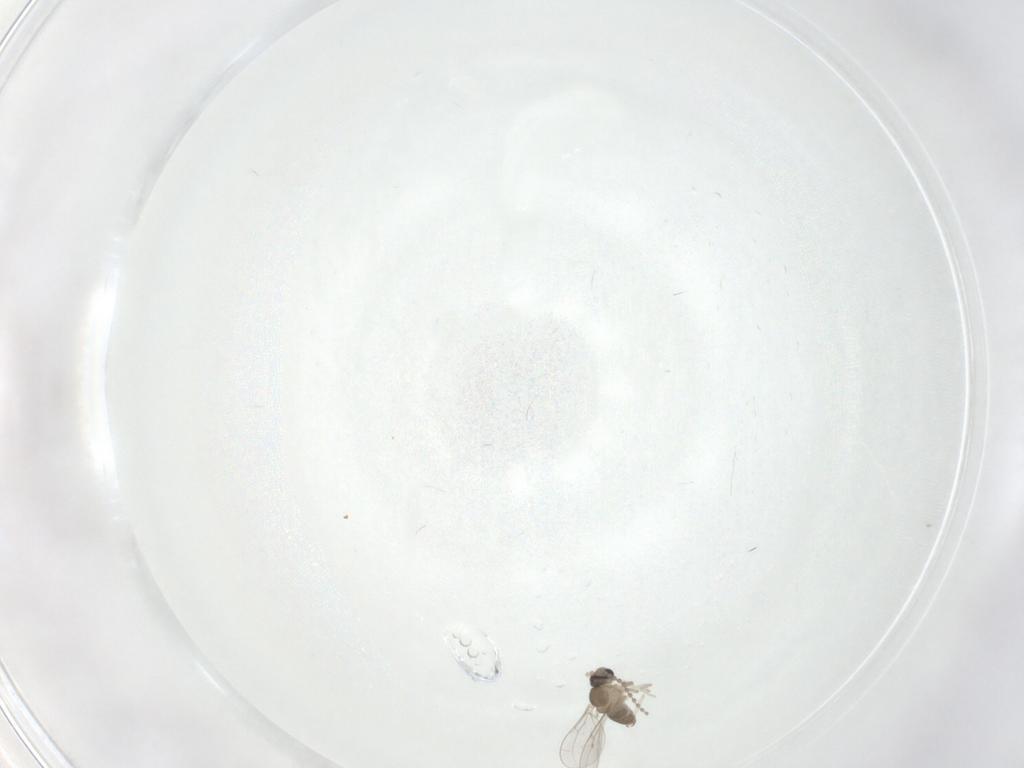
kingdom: Animalia
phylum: Arthropoda
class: Insecta
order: Diptera
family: Cecidomyiidae
